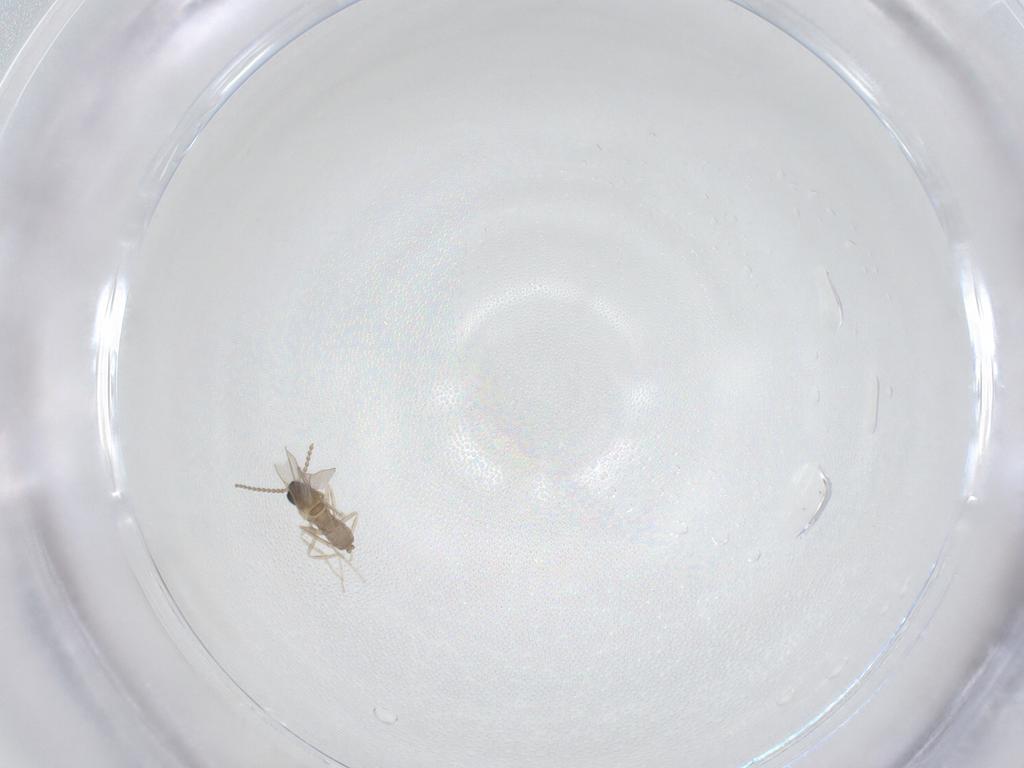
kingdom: Animalia
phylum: Arthropoda
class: Insecta
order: Diptera
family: Cecidomyiidae
